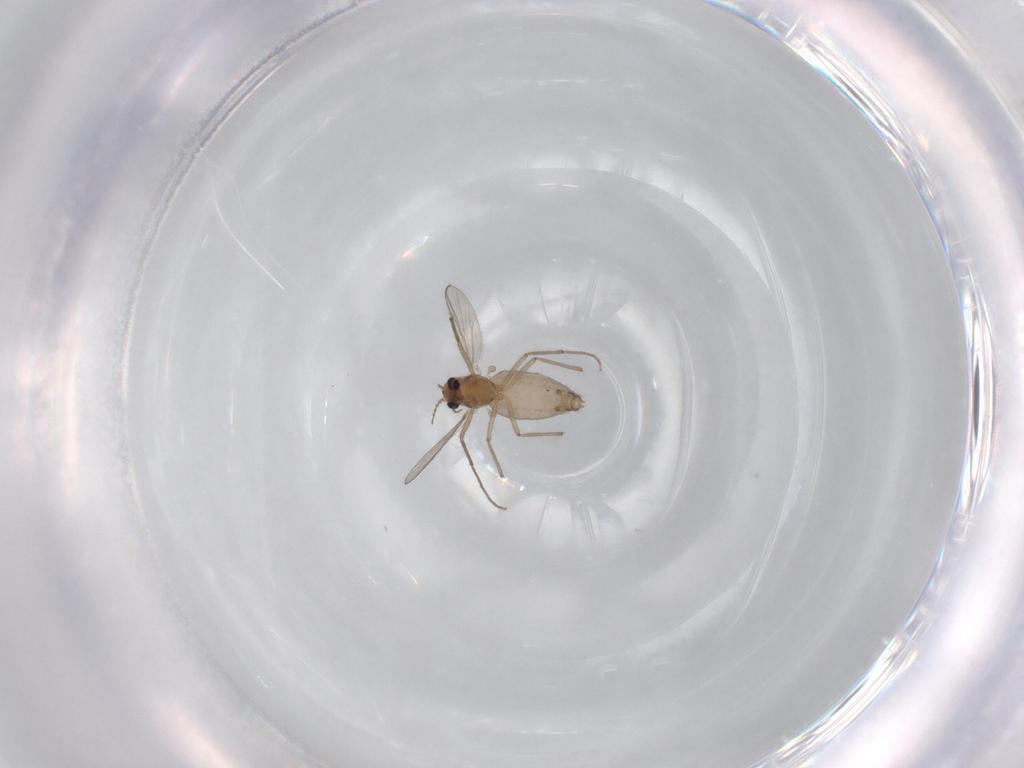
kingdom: Animalia
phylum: Arthropoda
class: Insecta
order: Diptera
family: Chironomidae
